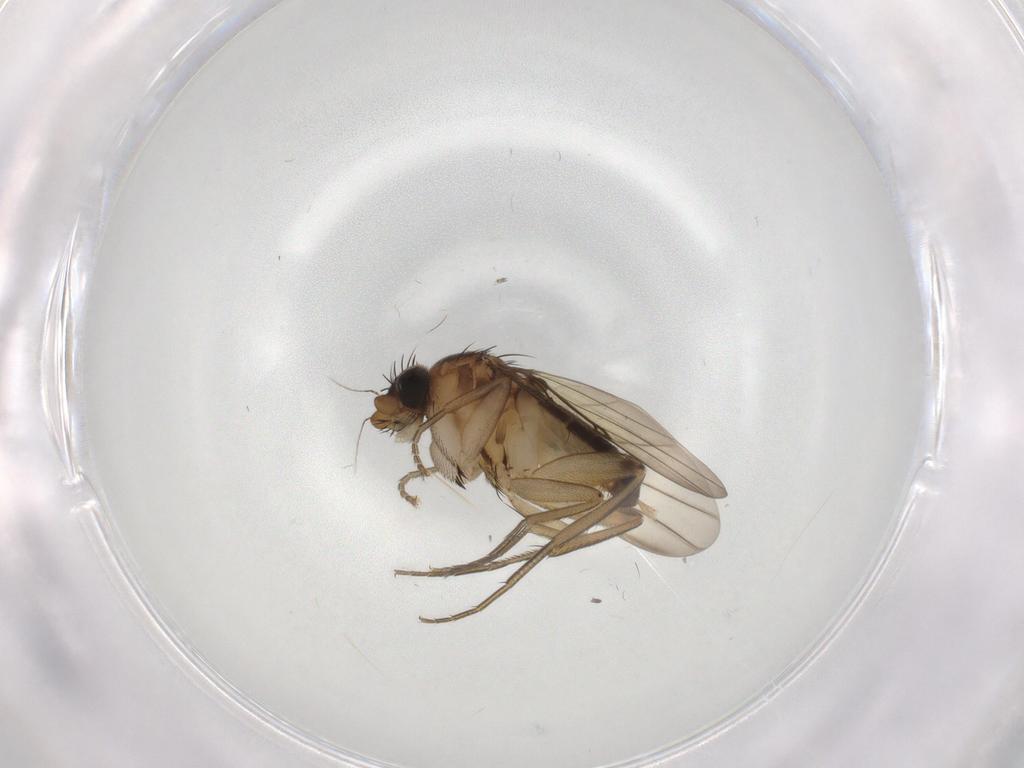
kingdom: Animalia
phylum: Arthropoda
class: Insecta
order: Diptera
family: Phoridae
